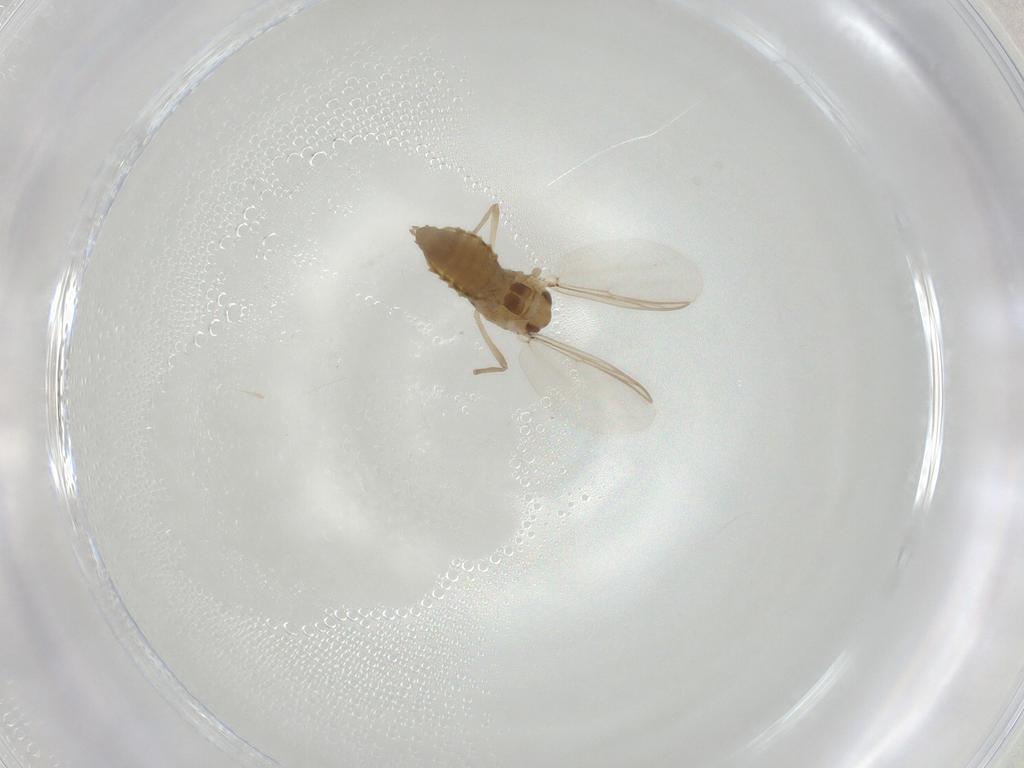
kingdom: Animalia
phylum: Arthropoda
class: Insecta
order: Diptera
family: Chironomidae
